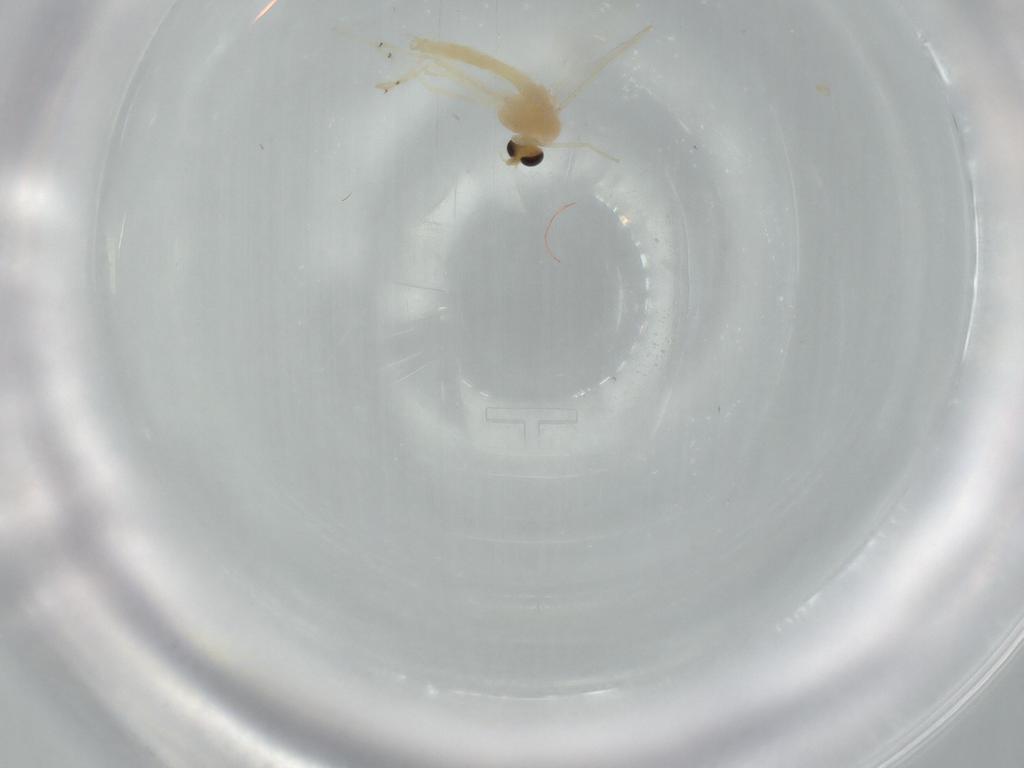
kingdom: Animalia
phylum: Arthropoda
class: Insecta
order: Diptera
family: Chironomidae
